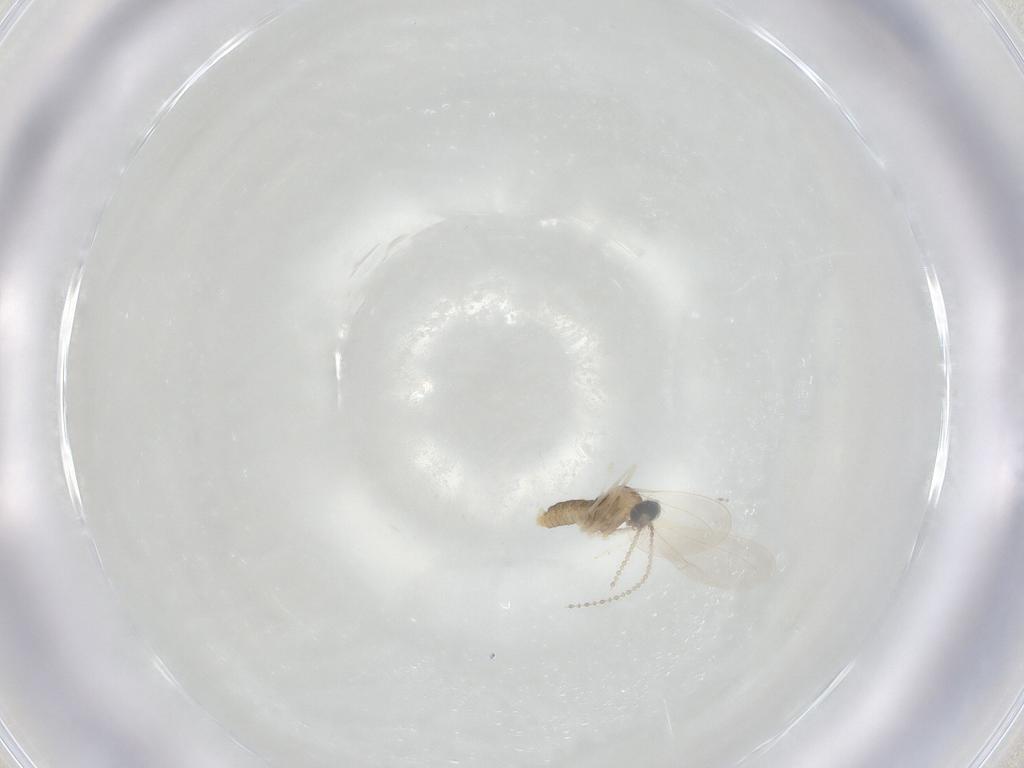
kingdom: Animalia
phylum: Arthropoda
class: Insecta
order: Diptera
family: Cecidomyiidae
